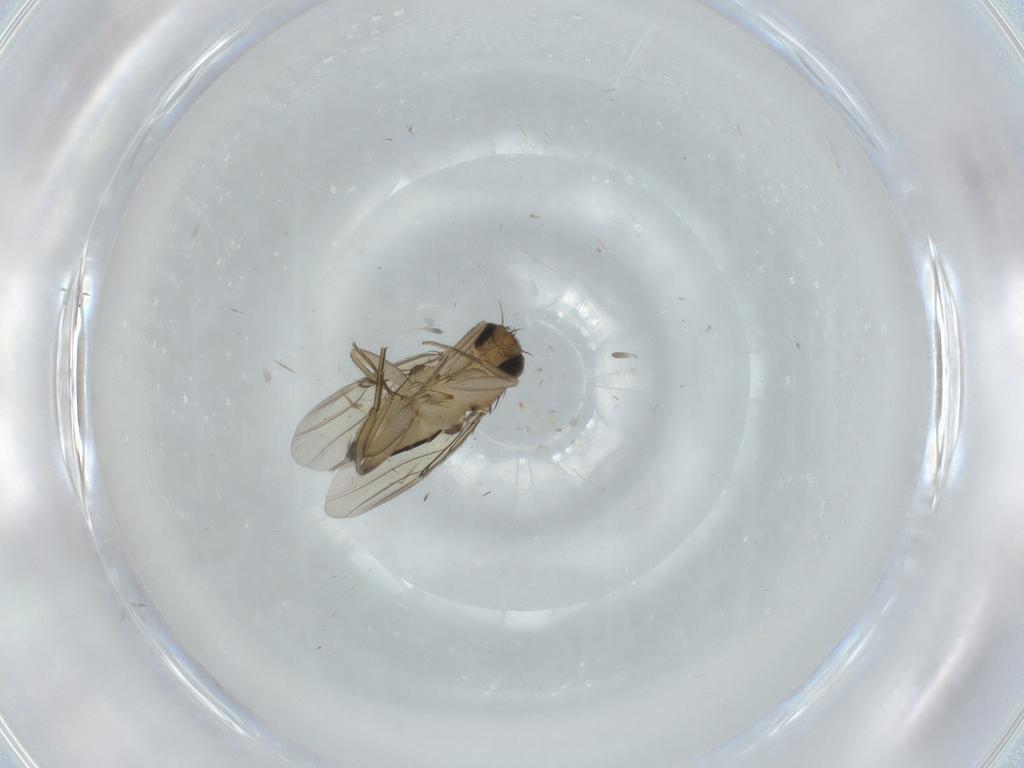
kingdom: Animalia
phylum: Arthropoda
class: Insecta
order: Diptera
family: Phoridae
